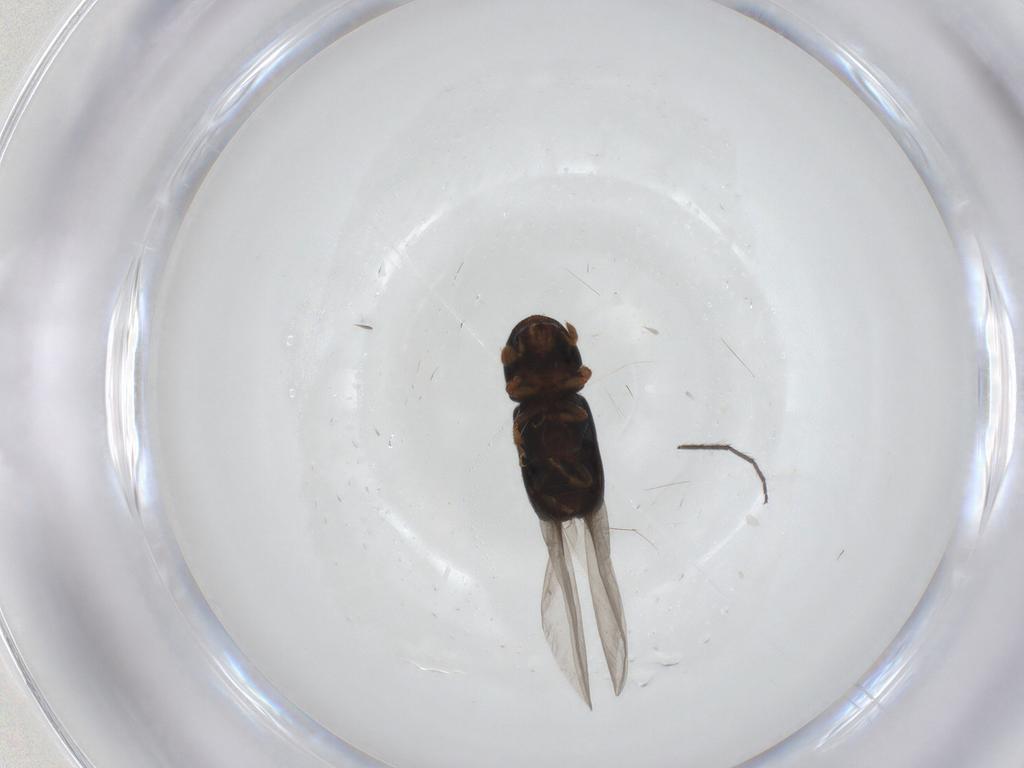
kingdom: Animalia
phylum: Arthropoda
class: Insecta
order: Coleoptera
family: Curculionidae
